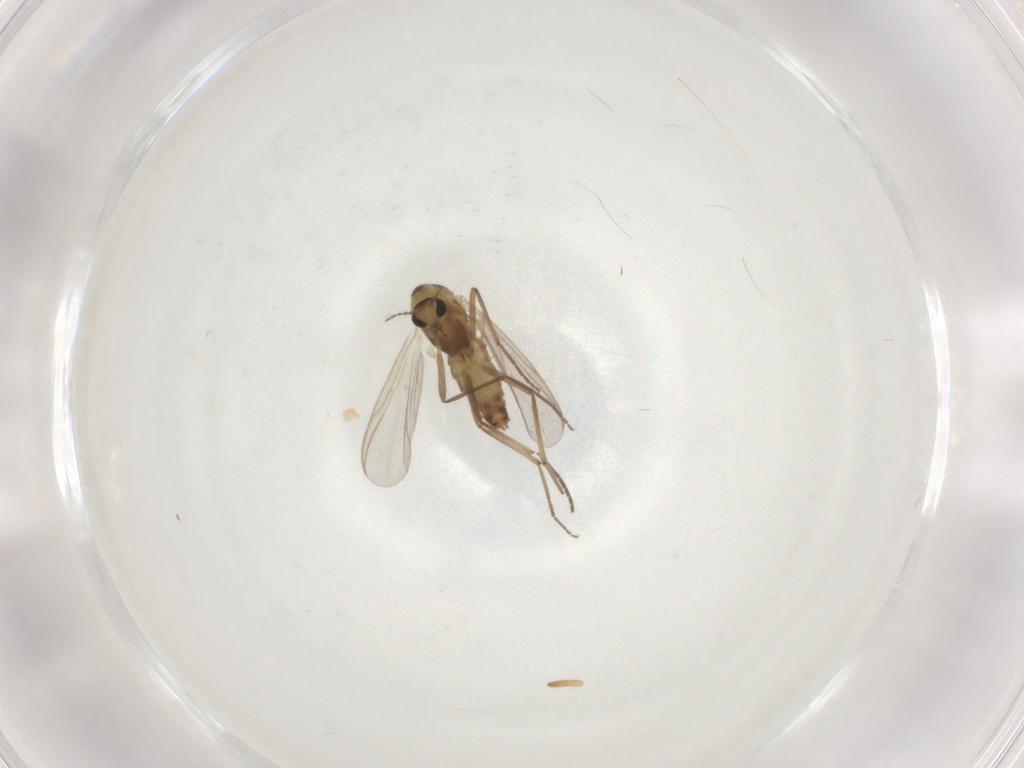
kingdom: Animalia
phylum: Arthropoda
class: Insecta
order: Diptera
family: Chironomidae
